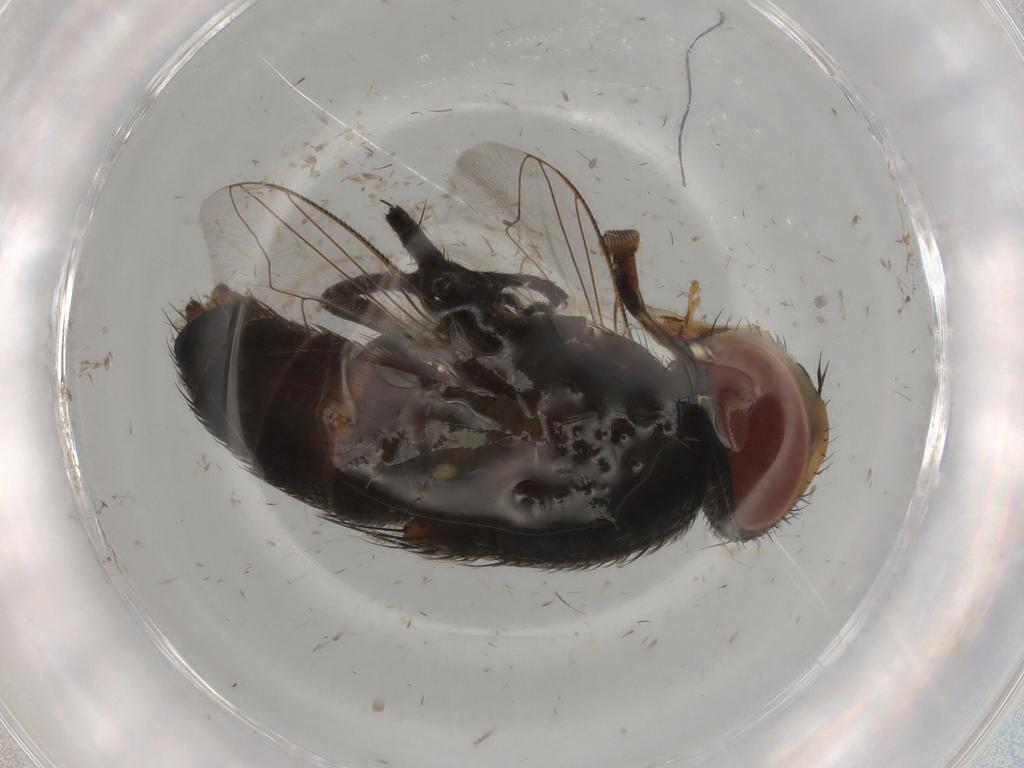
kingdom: Animalia
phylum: Arthropoda
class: Insecta
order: Diptera
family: Sarcophagidae
